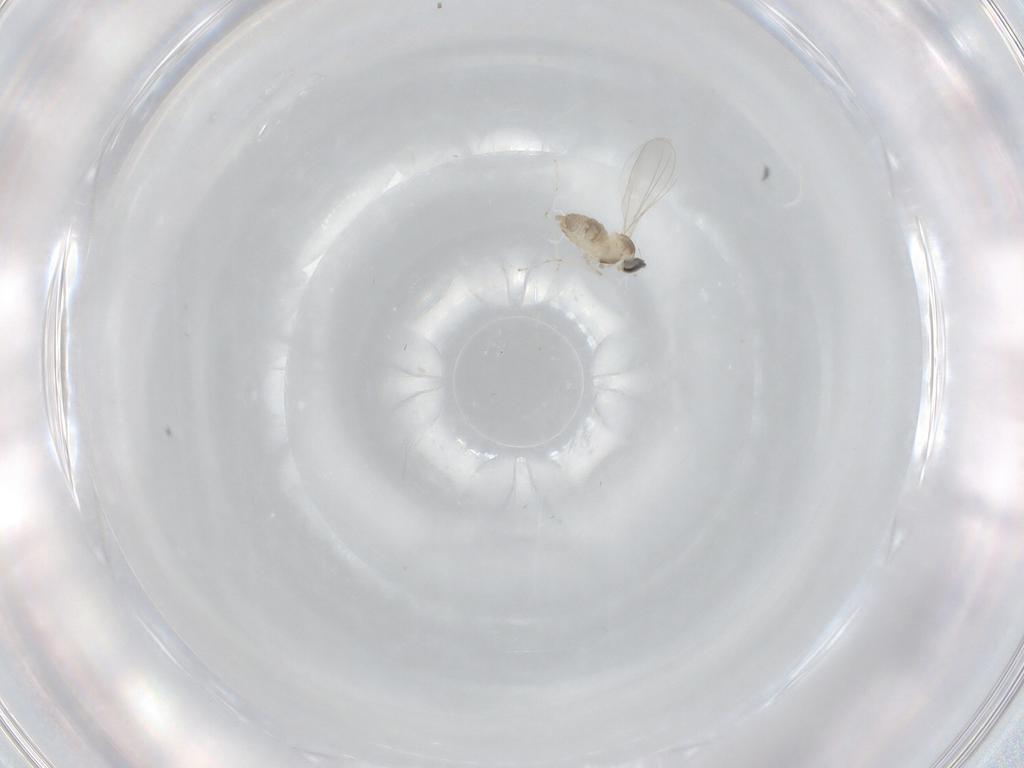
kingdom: Animalia
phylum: Arthropoda
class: Insecta
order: Diptera
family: Cecidomyiidae
